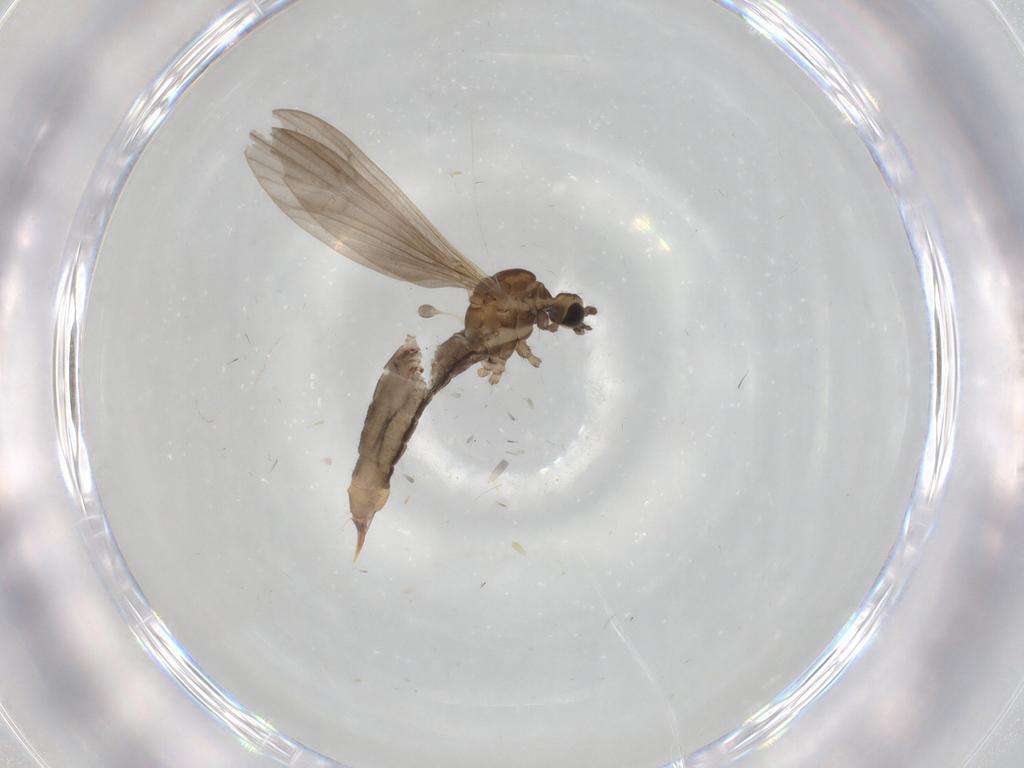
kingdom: Animalia
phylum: Arthropoda
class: Insecta
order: Diptera
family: Limoniidae
